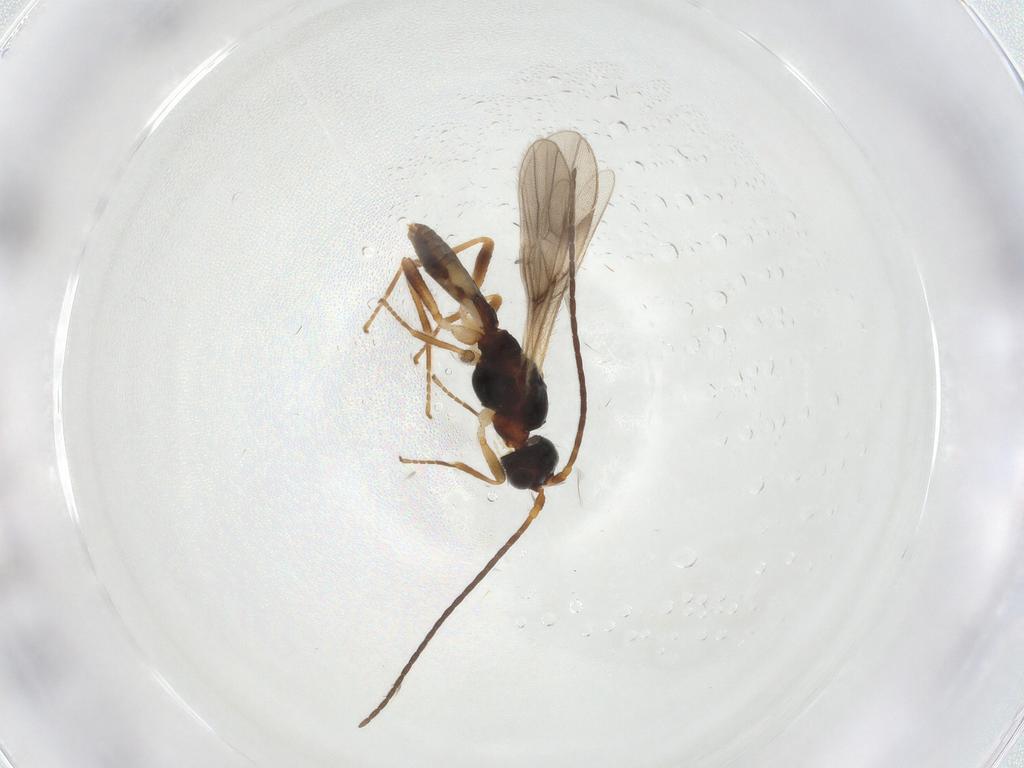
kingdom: Animalia
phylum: Arthropoda
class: Insecta
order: Hymenoptera
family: Braconidae
